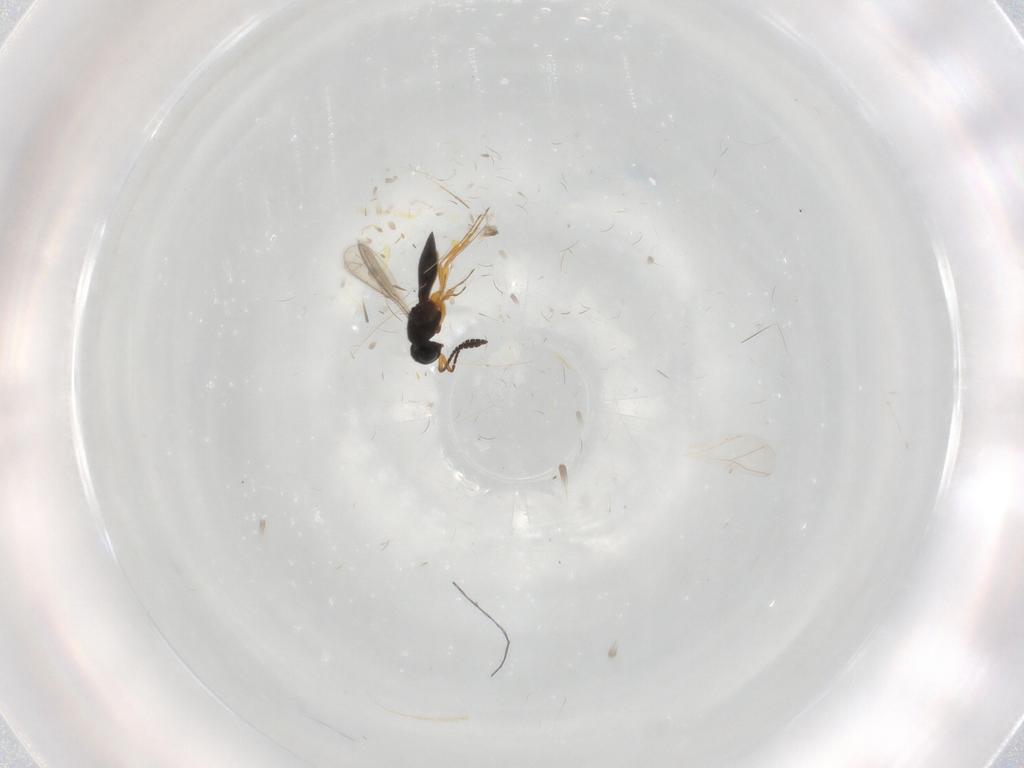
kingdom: Animalia
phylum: Arthropoda
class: Insecta
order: Hymenoptera
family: Scelionidae
